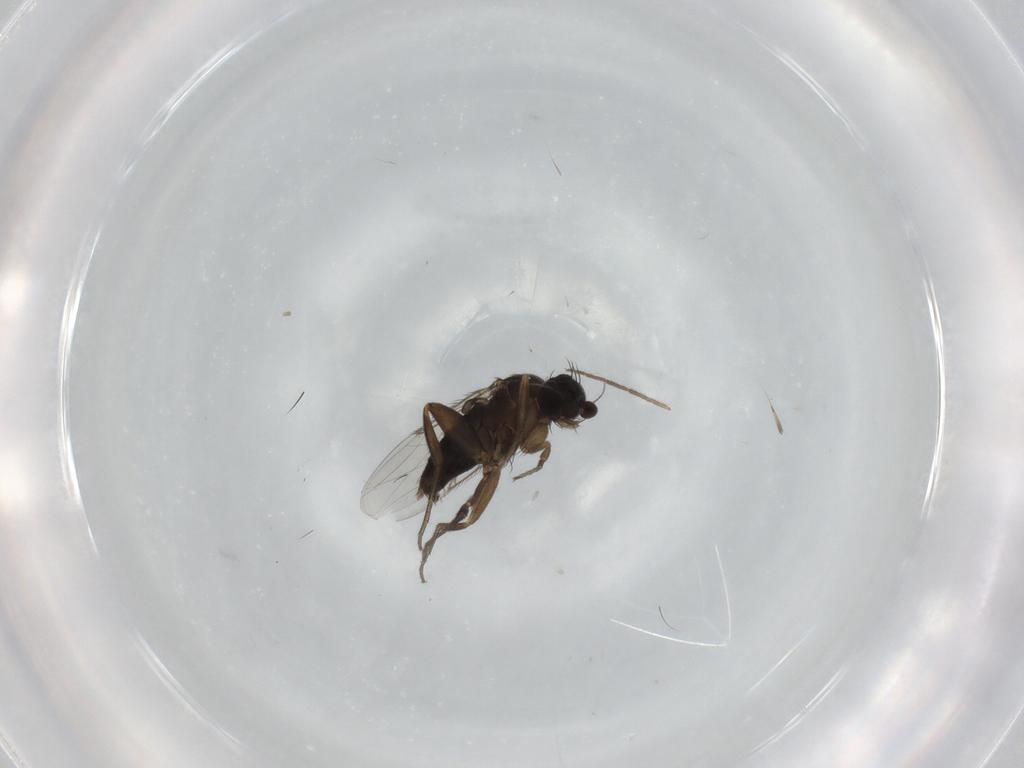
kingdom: Animalia
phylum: Arthropoda
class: Insecta
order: Diptera
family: Phoridae
